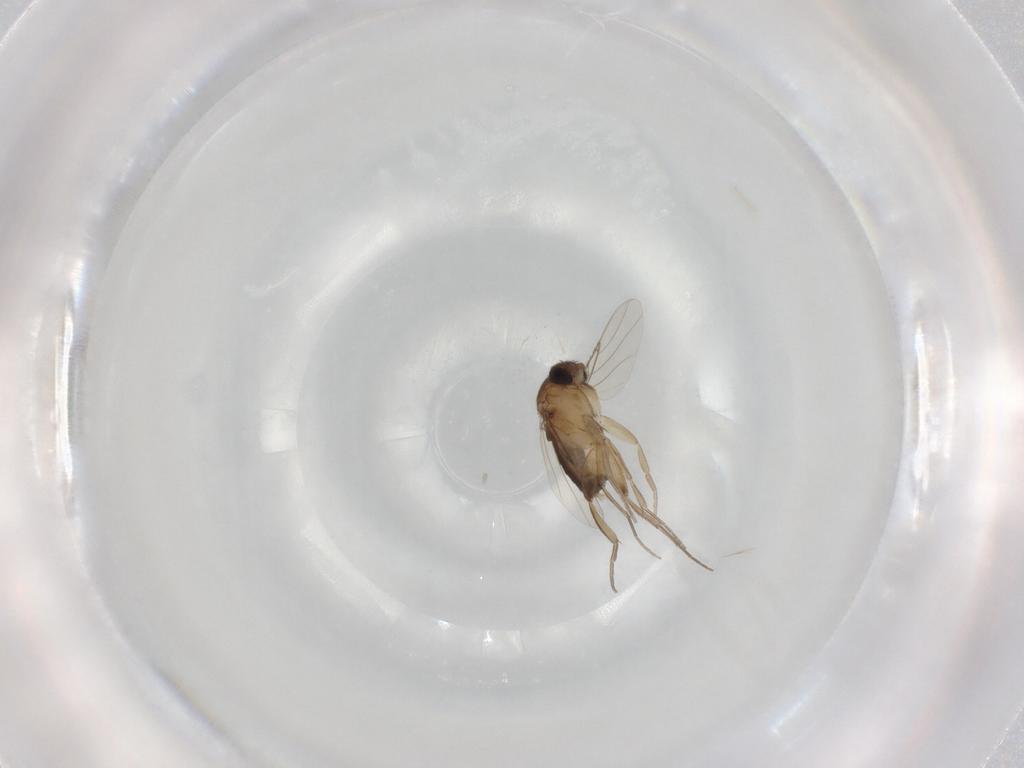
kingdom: Animalia
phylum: Arthropoda
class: Insecta
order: Diptera
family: Phoridae
